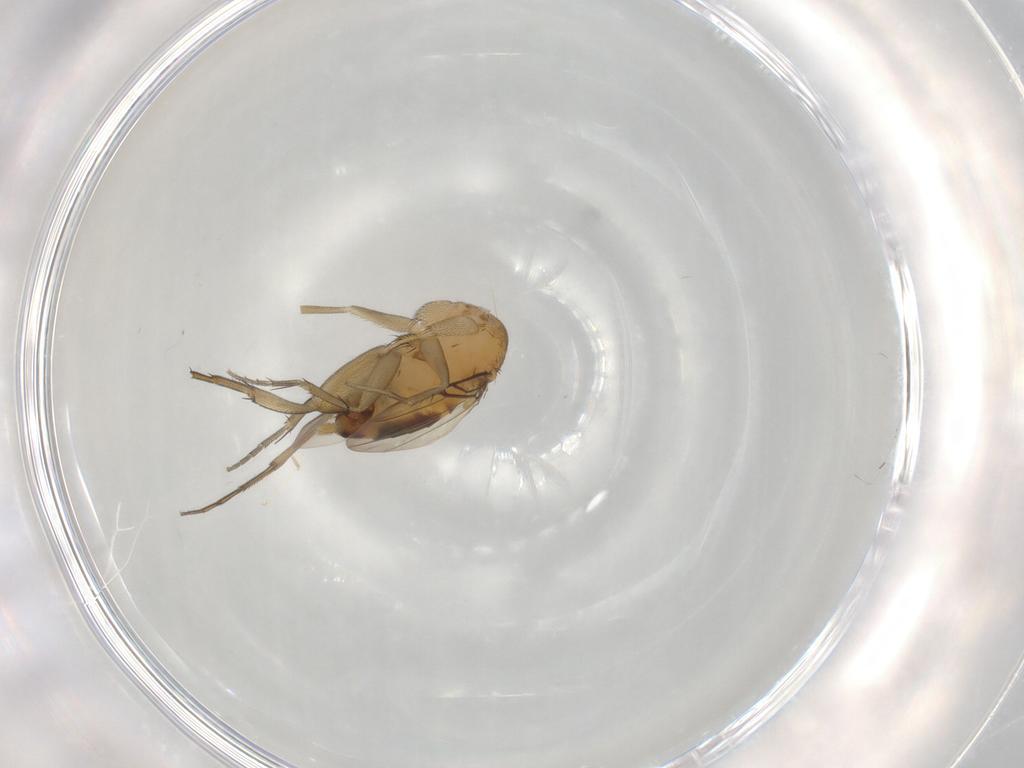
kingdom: Animalia
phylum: Arthropoda
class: Insecta
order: Diptera
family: Phoridae
